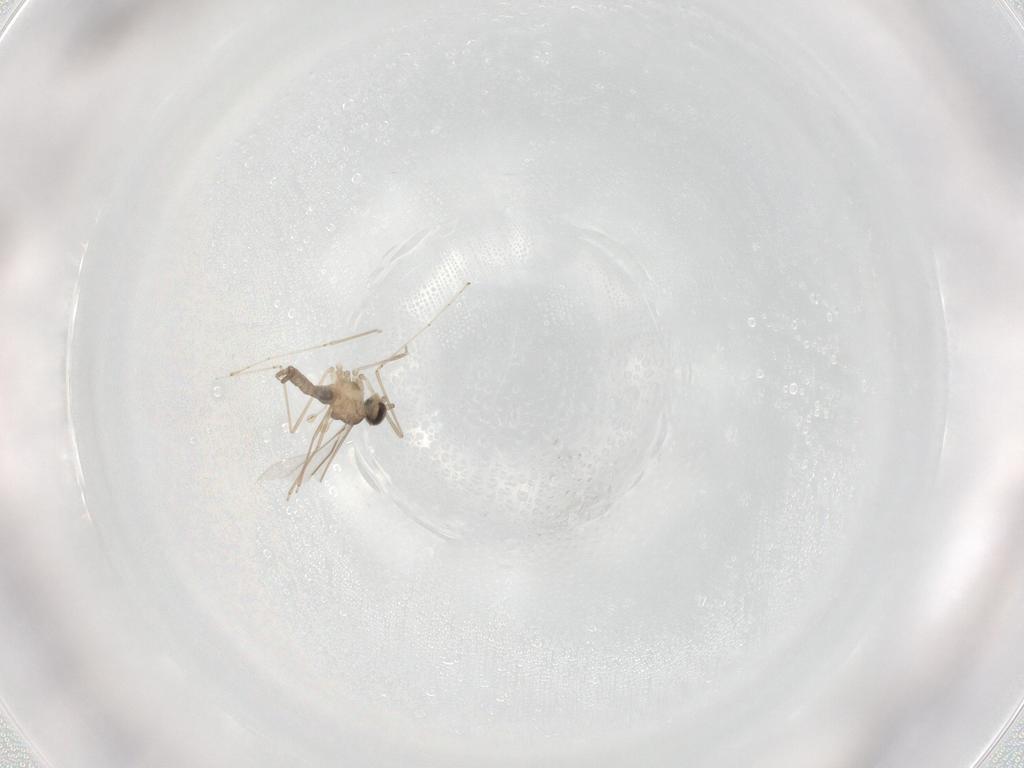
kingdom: Animalia
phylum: Arthropoda
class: Insecta
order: Diptera
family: Cecidomyiidae
